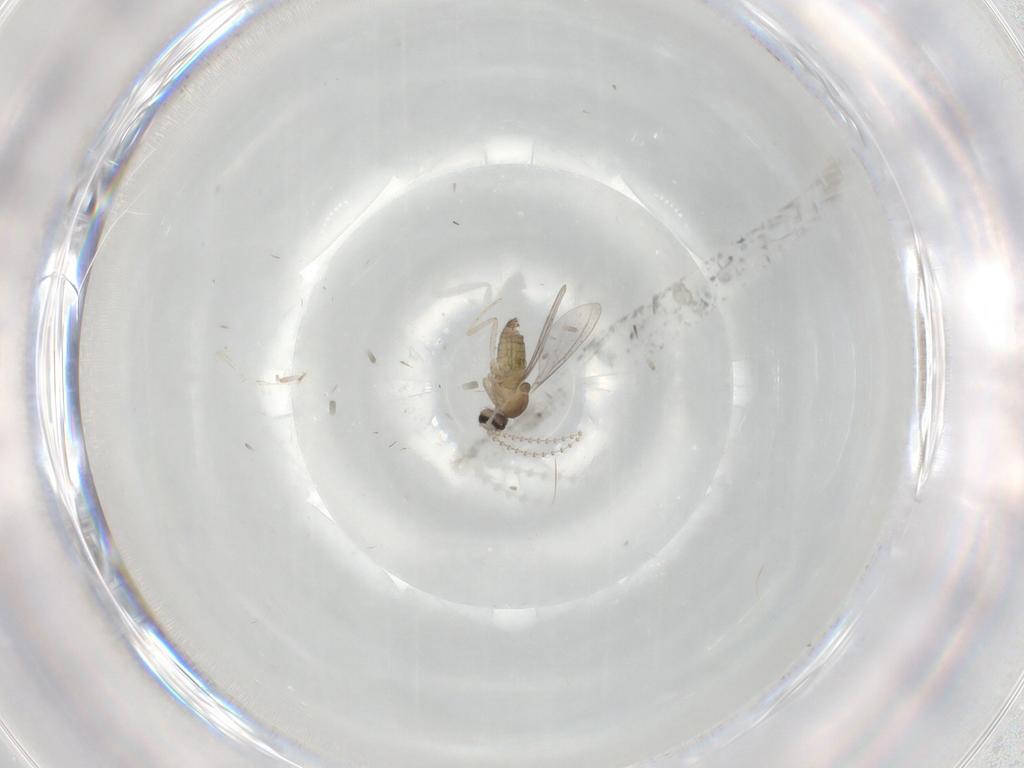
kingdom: Animalia
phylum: Arthropoda
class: Insecta
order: Diptera
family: Cecidomyiidae
